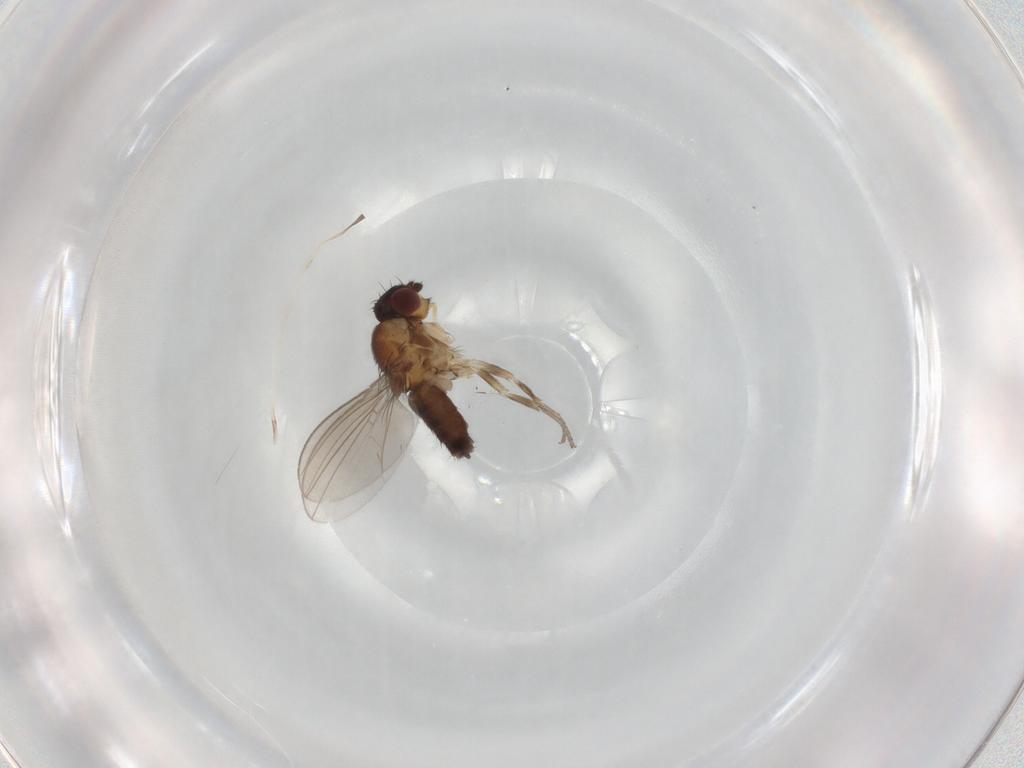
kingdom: Animalia
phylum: Arthropoda
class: Insecta
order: Diptera
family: Milichiidae
